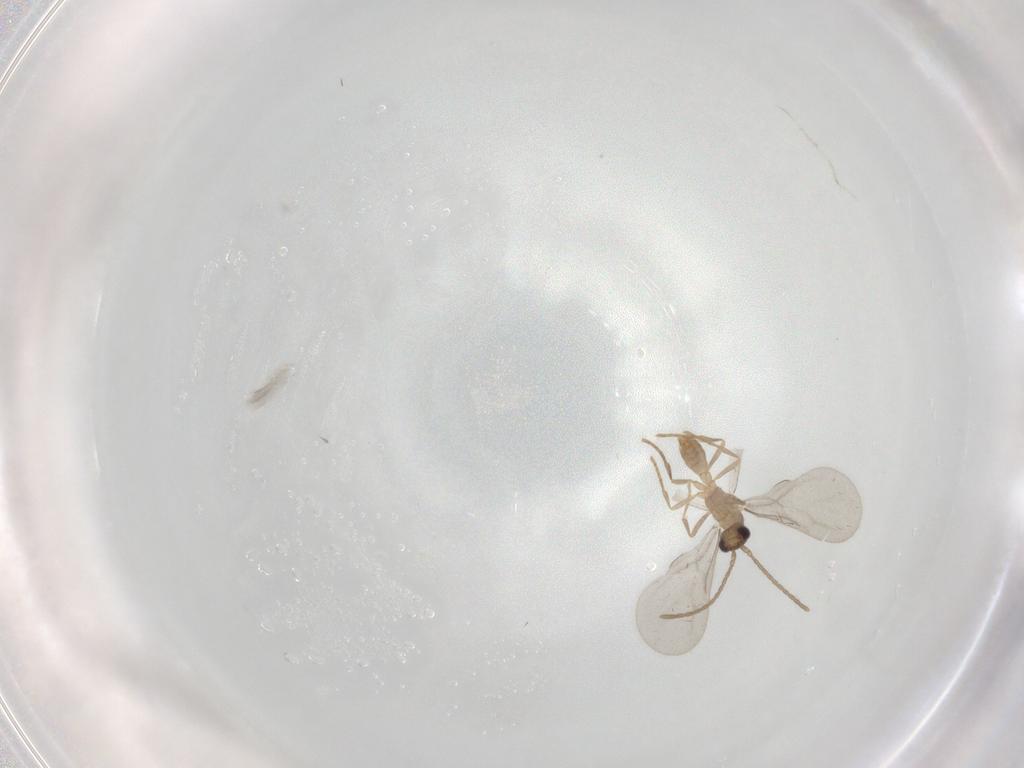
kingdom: Animalia
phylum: Arthropoda
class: Insecta
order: Hymenoptera
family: Formicidae
